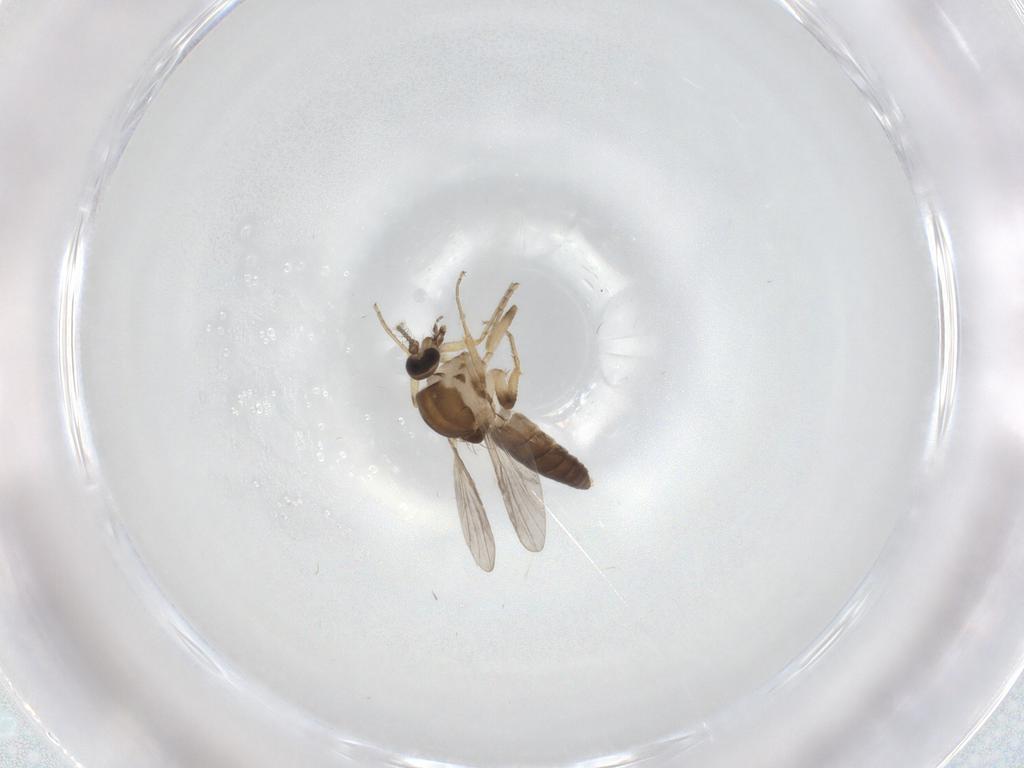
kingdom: Animalia
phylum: Arthropoda
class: Insecta
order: Diptera
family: Ceratopogonidae
